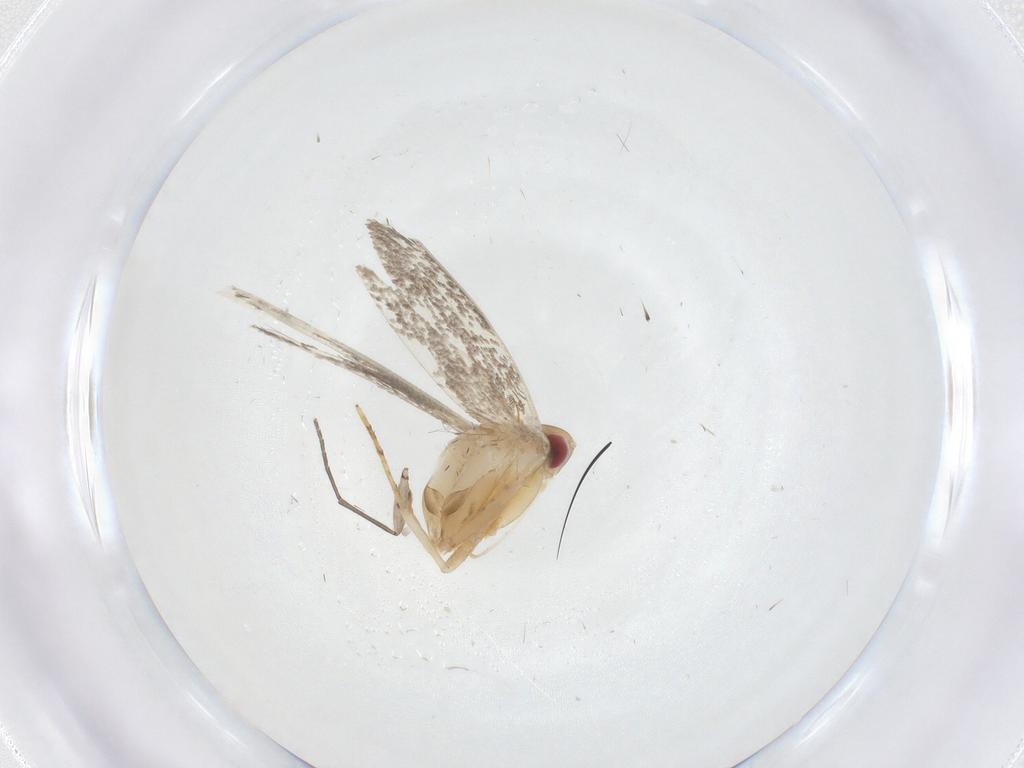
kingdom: Animalia
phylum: Arthropoda
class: Insecta
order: Lepidoptera
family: Cosmopterigidae
